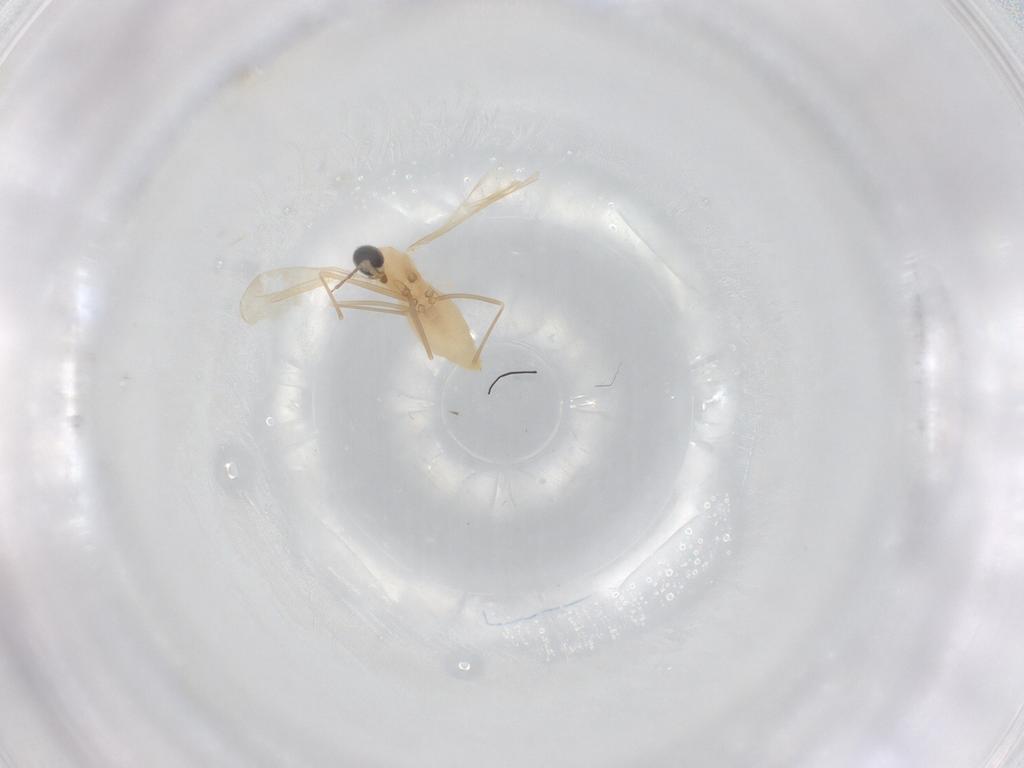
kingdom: Animalia
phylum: Arthropoda
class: Insecta
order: Diptera
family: Cecidomyiidae
